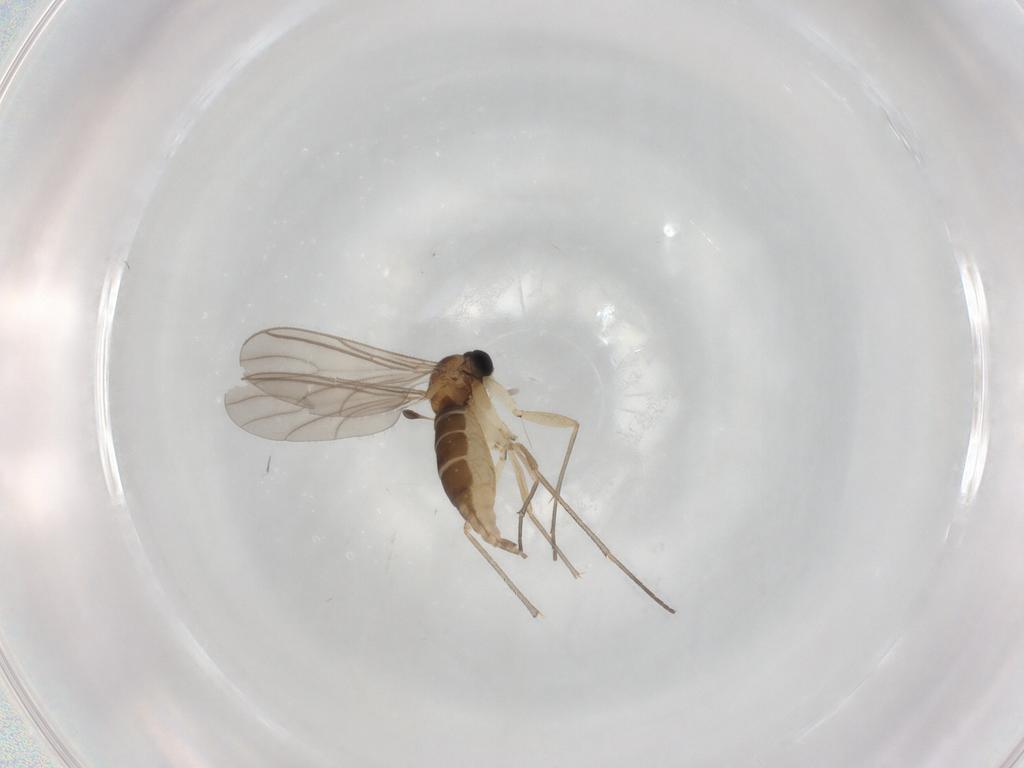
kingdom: Animalia
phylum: Arthropoda
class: Insecta
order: Diptera
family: Sciaridae
